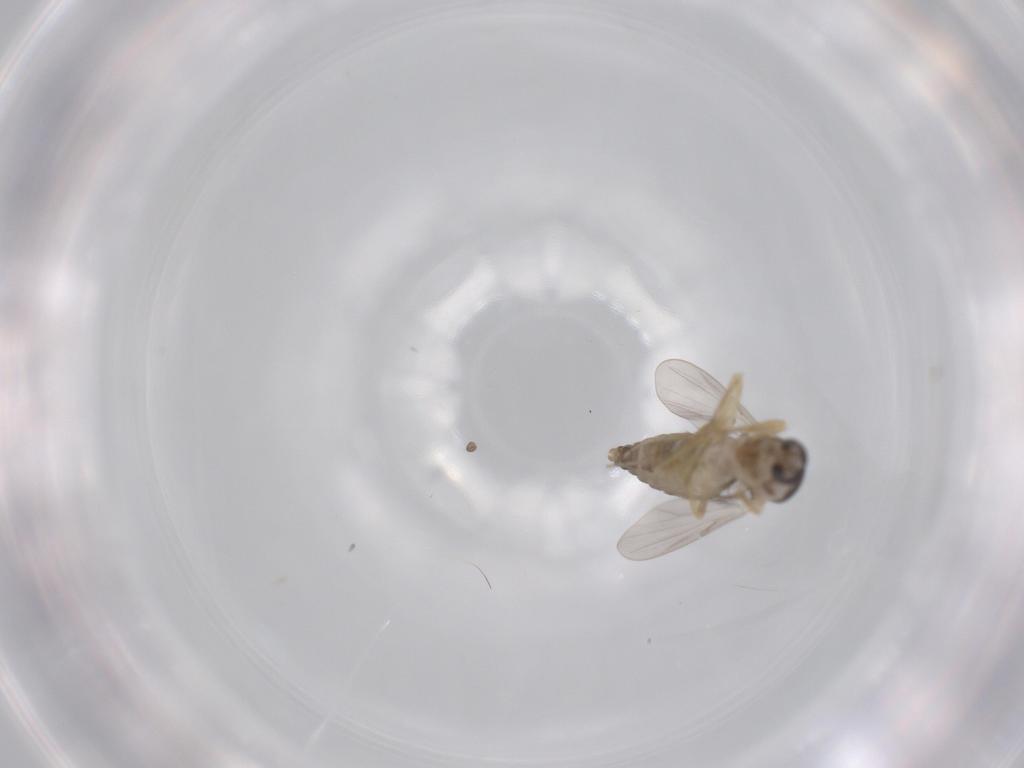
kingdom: Animalia
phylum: Arthropoda
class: Insecta
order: Diptera
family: Ceratopogonidae
